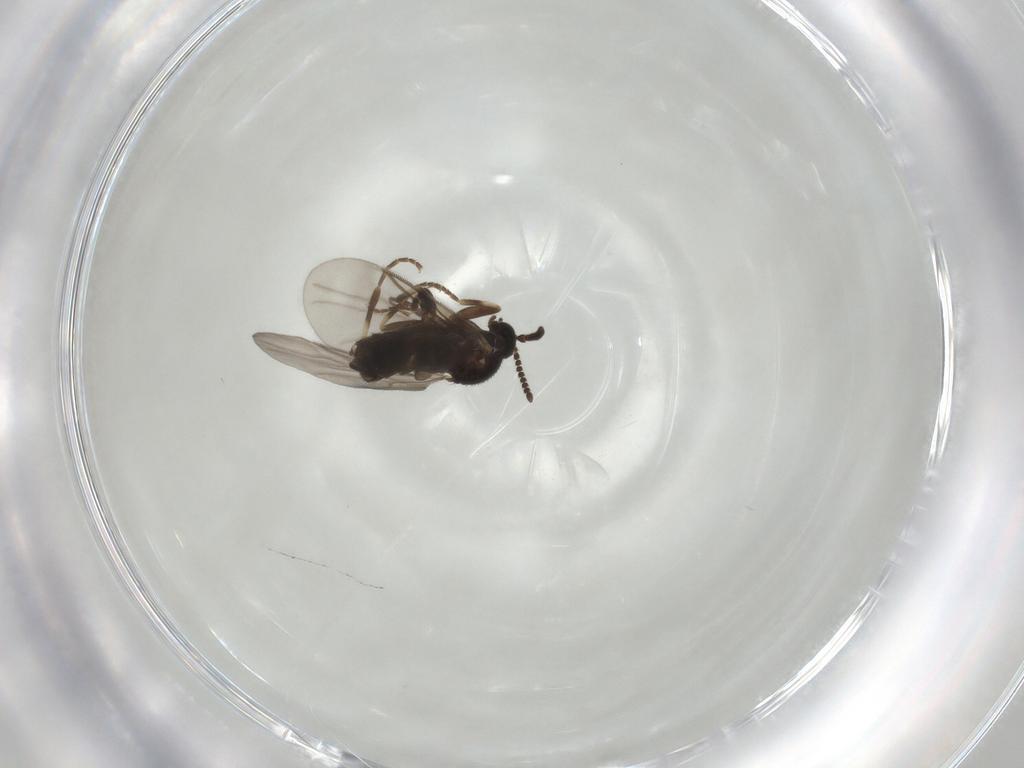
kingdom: Animalia
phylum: Arthropoda
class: Insecta
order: Diptera
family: Scatopsidae
